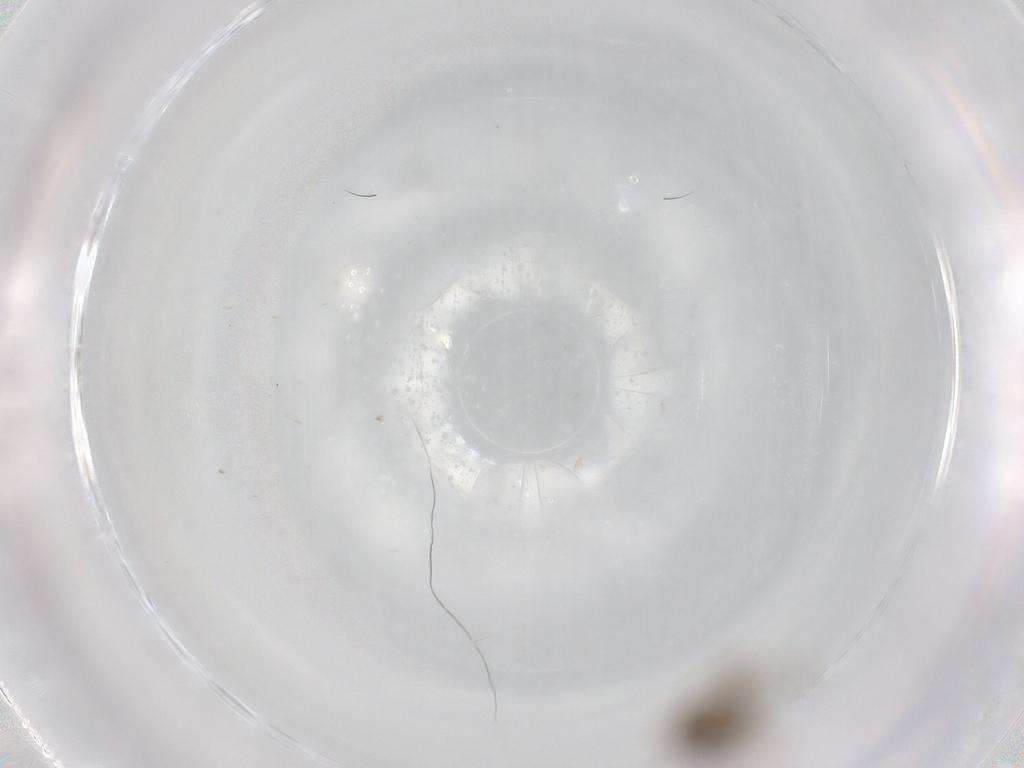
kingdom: Animalia
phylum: Arthropoda
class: Insecta
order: Diptera
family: Cecidomyiidae
